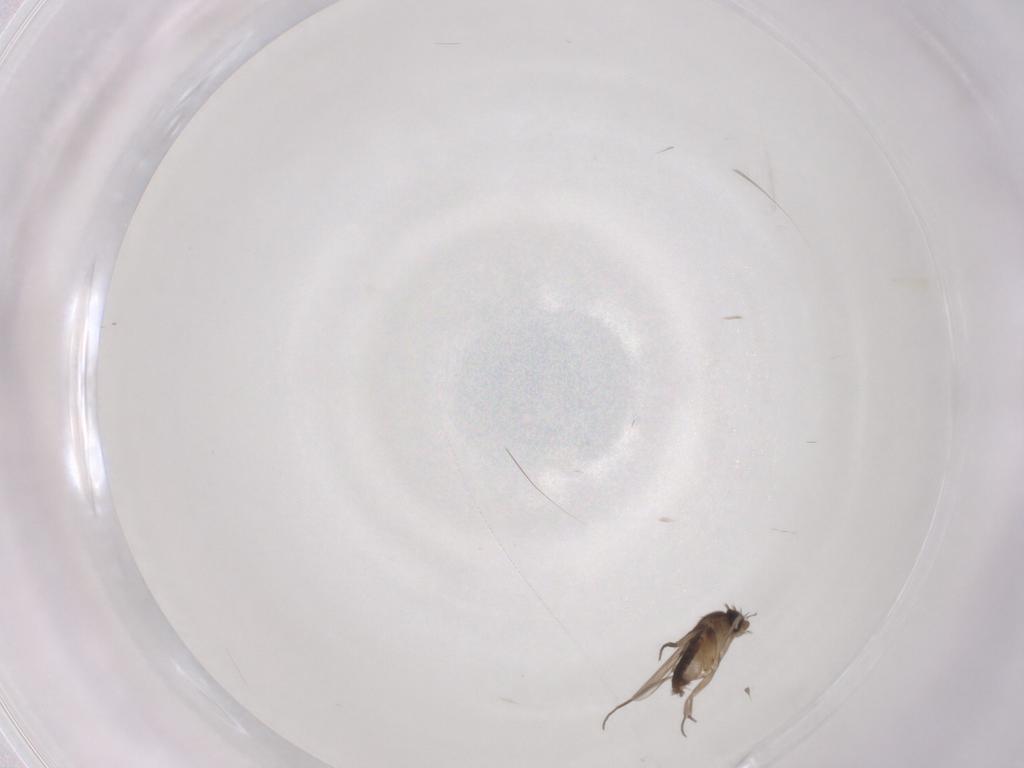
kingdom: Animalia
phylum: Arthropoda
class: Insecta
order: Diptera
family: Phoridae
